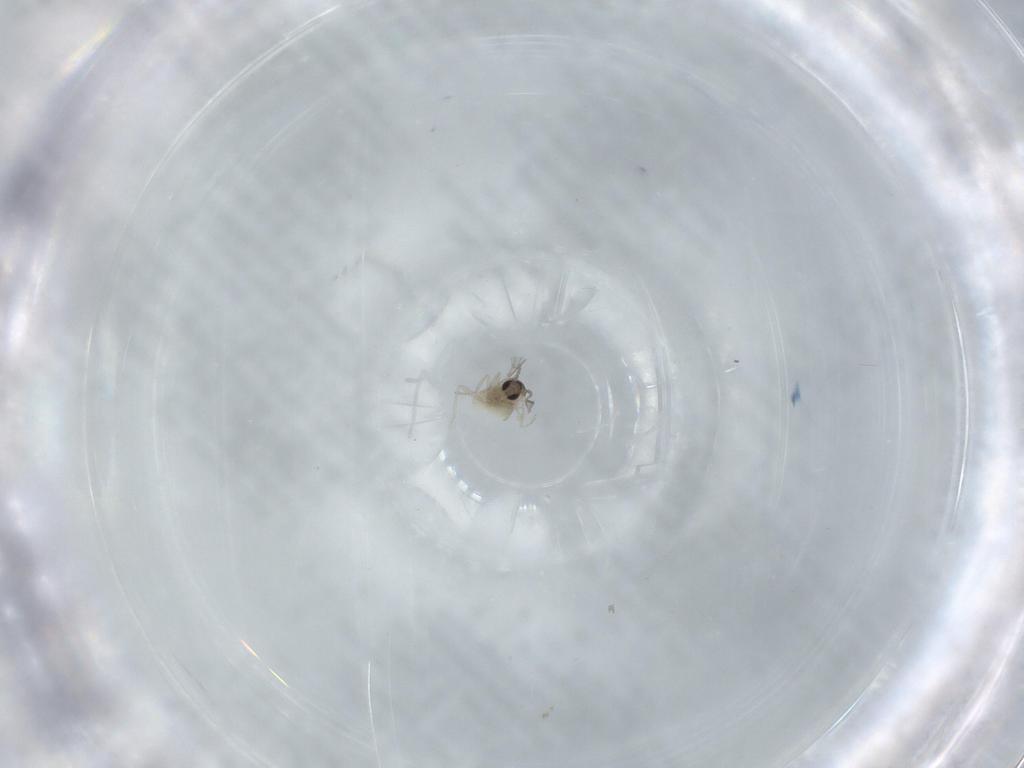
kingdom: Animalia
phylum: Arthropoda
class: Insecta
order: Diptera
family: Cecidomyiidae
